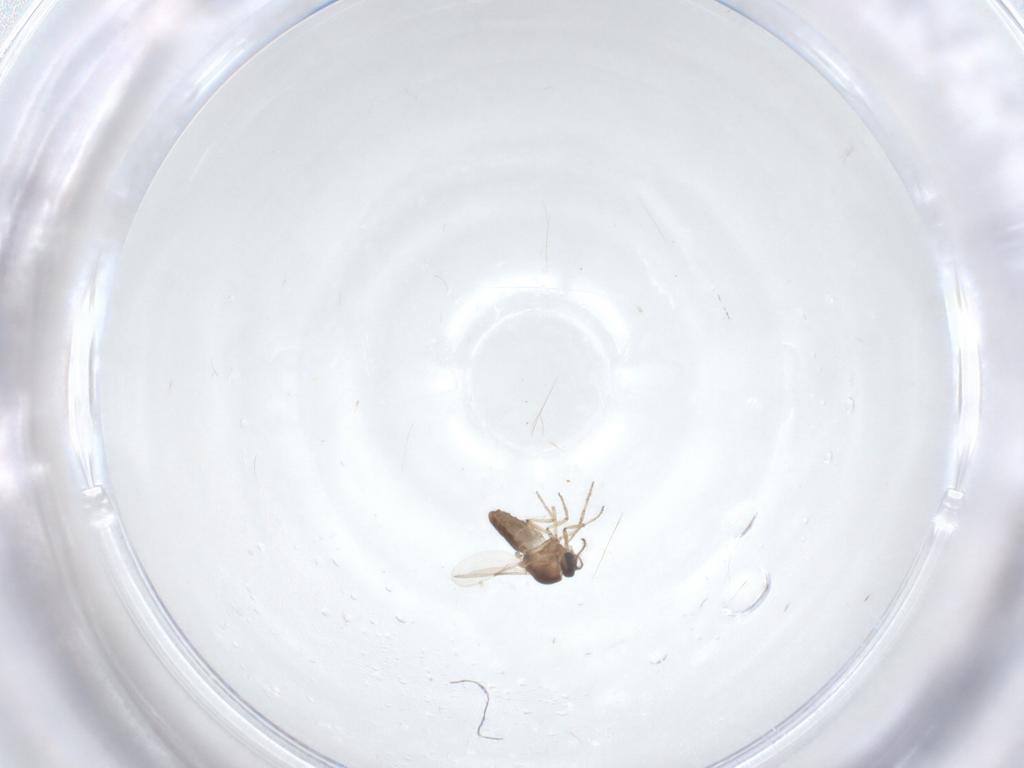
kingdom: Animalia
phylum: Arthropoda
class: Insecta
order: Diptera
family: Ceratopogonidae
